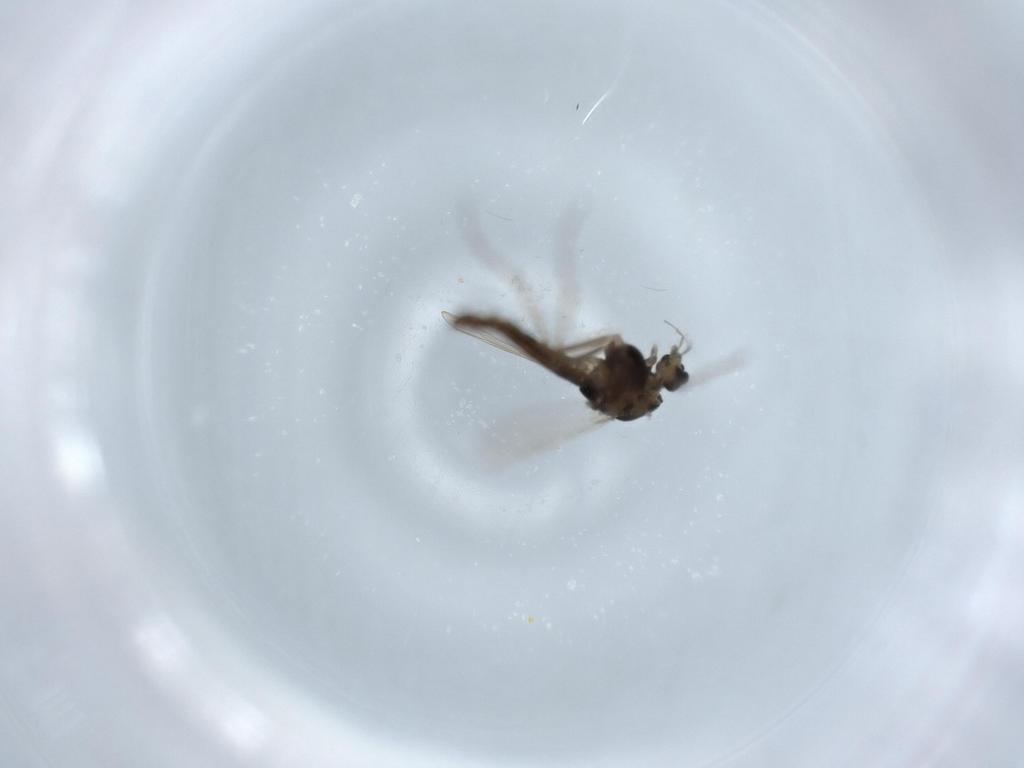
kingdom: Animalia
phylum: Arthropoda
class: Insecta
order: Diptera
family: Chironomidae
